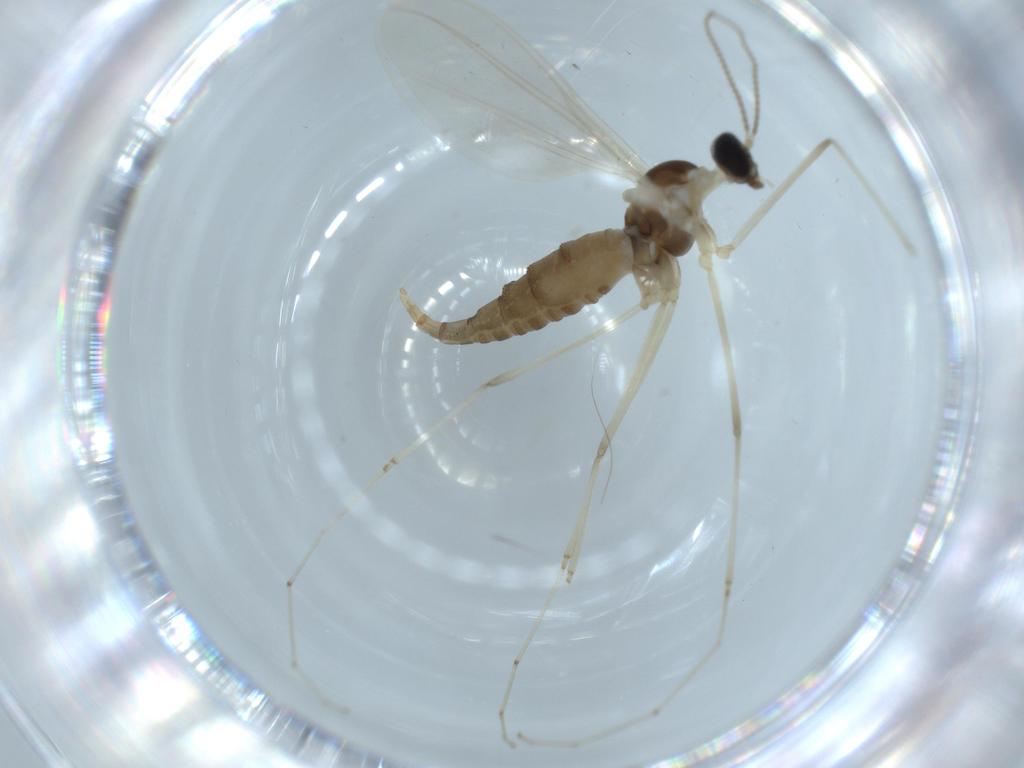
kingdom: Animalia
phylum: Arthropoda
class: Insecta
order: Diptera
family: Cecidomyiidae
